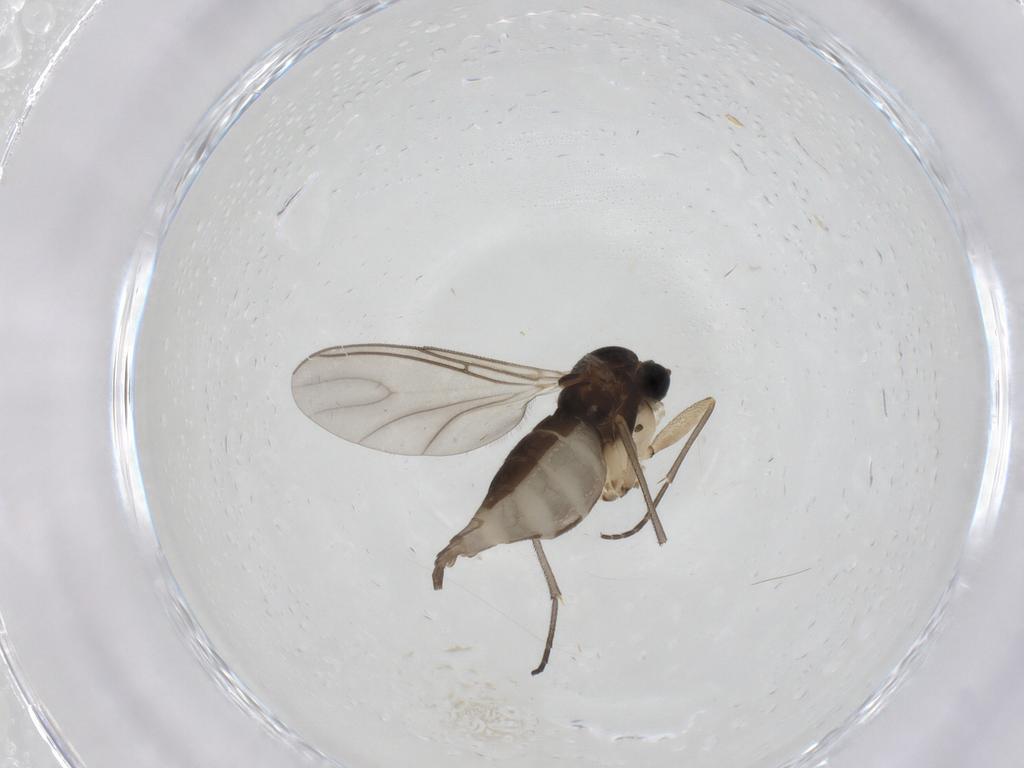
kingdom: Animalia
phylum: Arthropoda
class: Insecta
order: Diptera
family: Sciaridae
